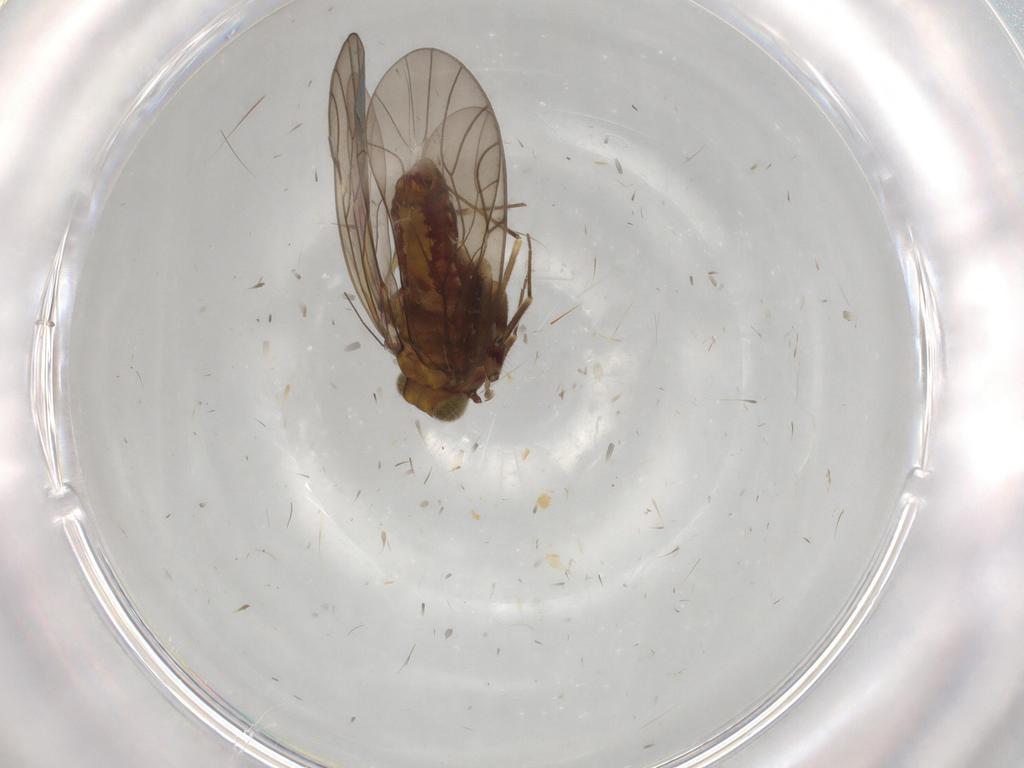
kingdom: Animalia
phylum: Arthropoda
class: Insecta
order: Psocodea
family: Philotarsidae
